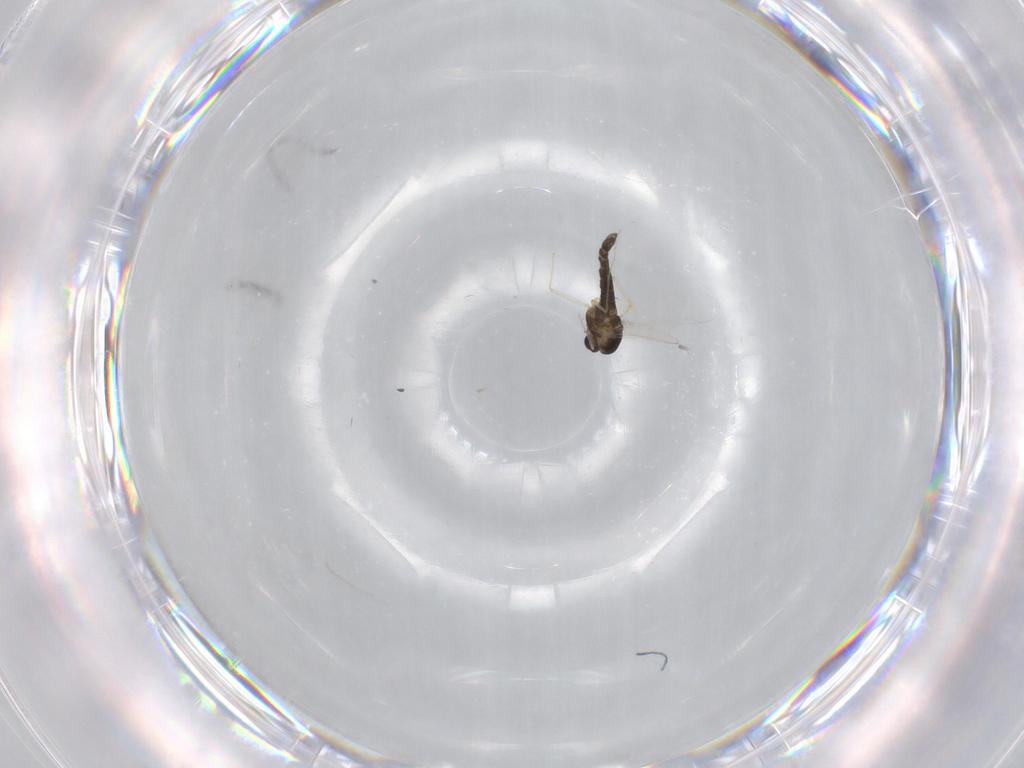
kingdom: Animalia
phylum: Arthropoda
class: Insecta
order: Diptera
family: Chironomidae
